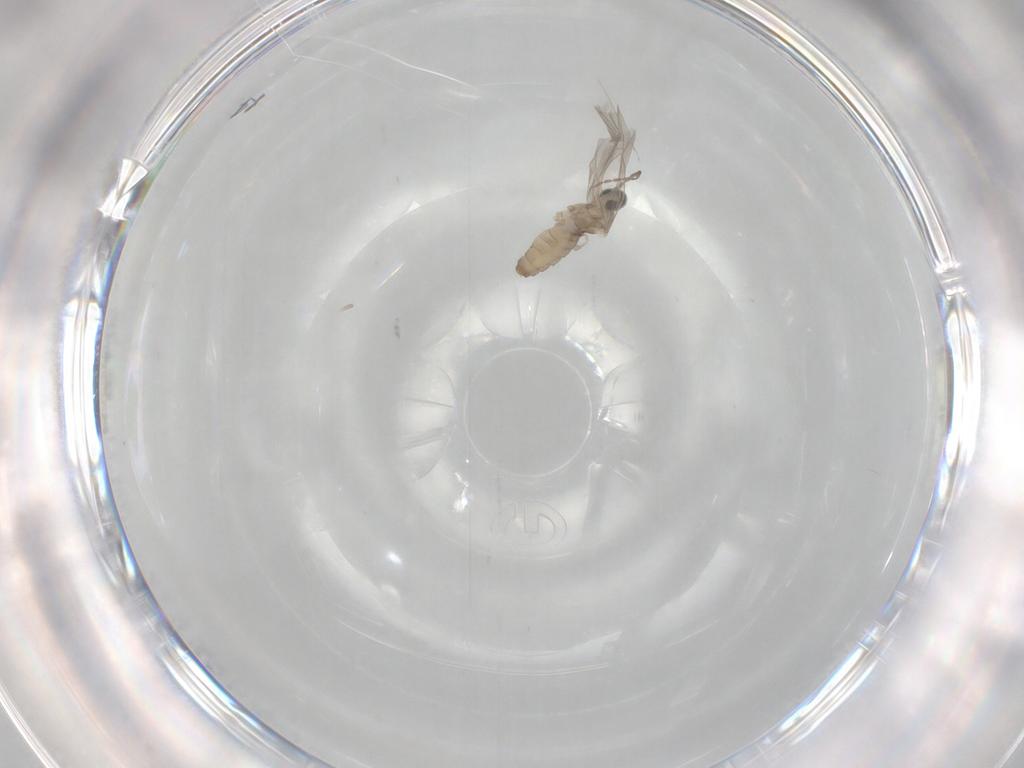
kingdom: Animalia
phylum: Arthropoda
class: Insecta
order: Diptera
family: Cecidomyiidae
